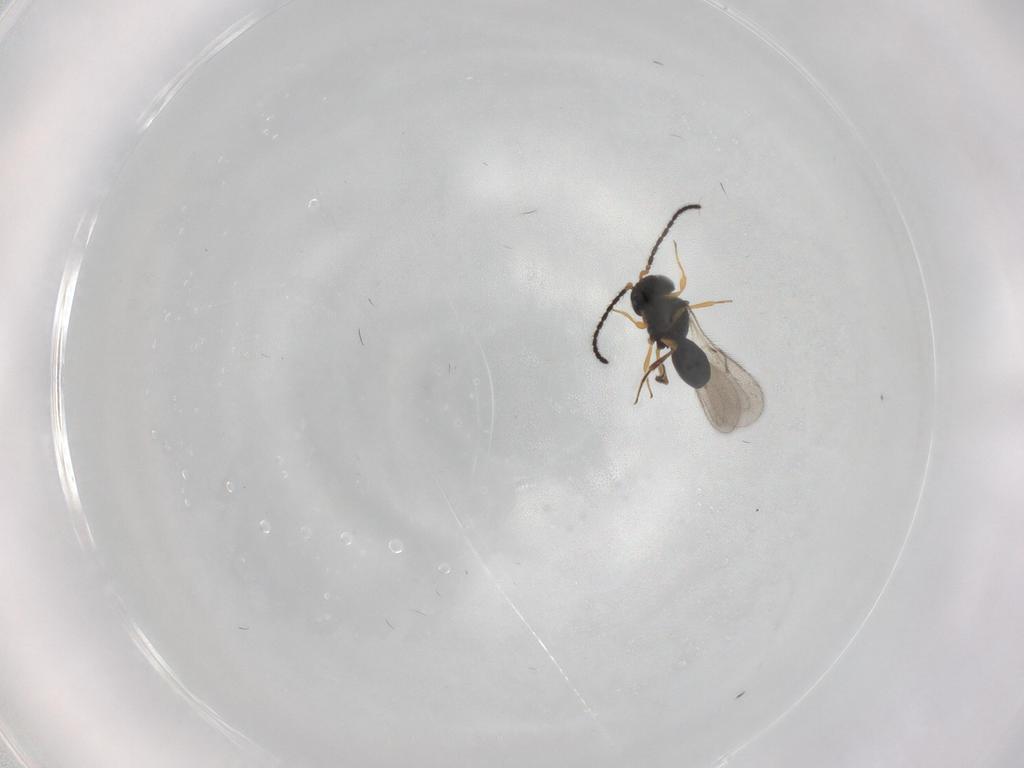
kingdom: Animalia
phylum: Arthropoda
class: Insecta
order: Hymenoptera
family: Scelionidae
